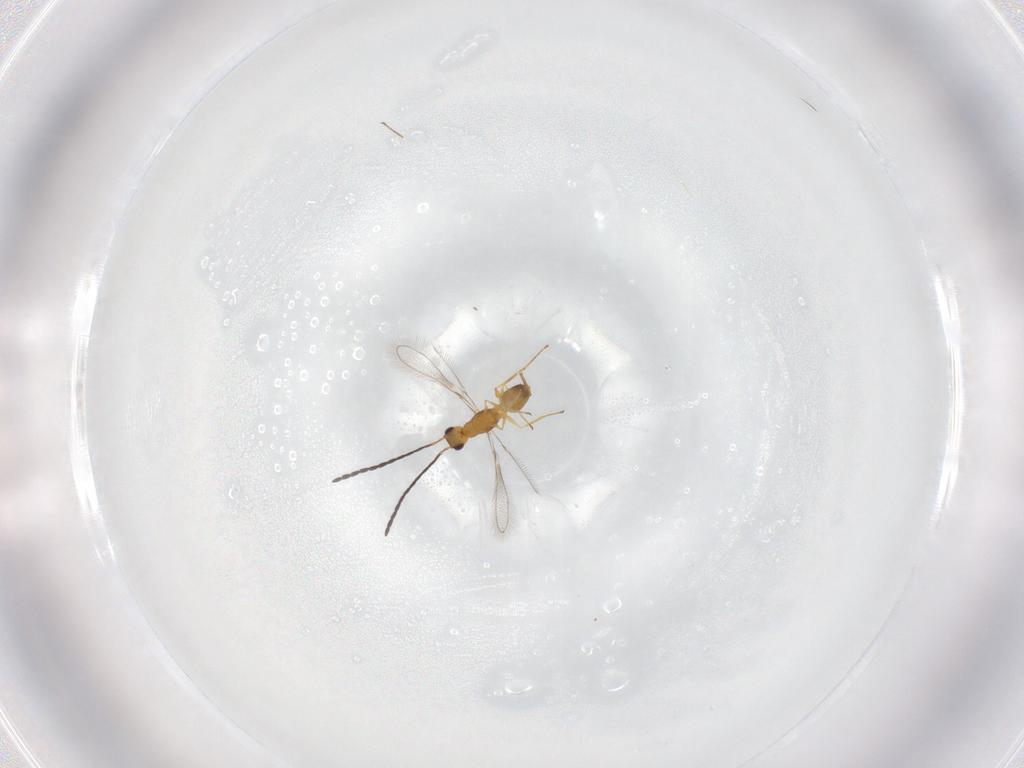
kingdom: Animalia
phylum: Arthropoda
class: Insecta
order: Hymenoptera
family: Mymaridae
